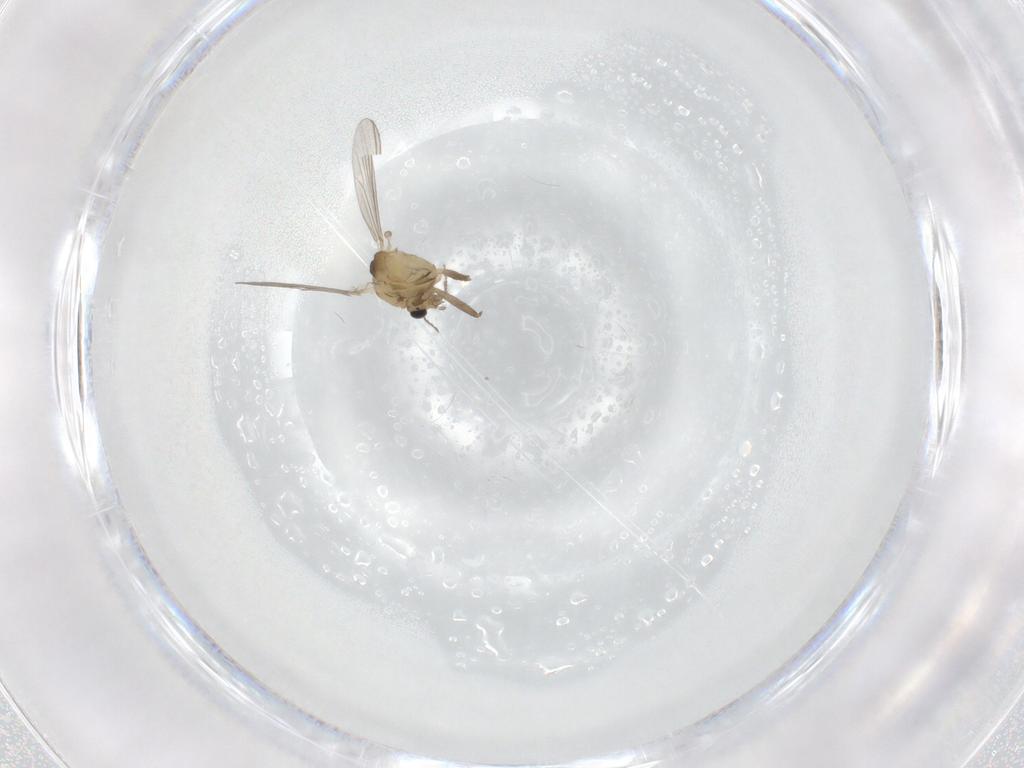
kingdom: Animalia
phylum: Arthropoda
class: Insecta
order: Diptera
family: Chironomidae
